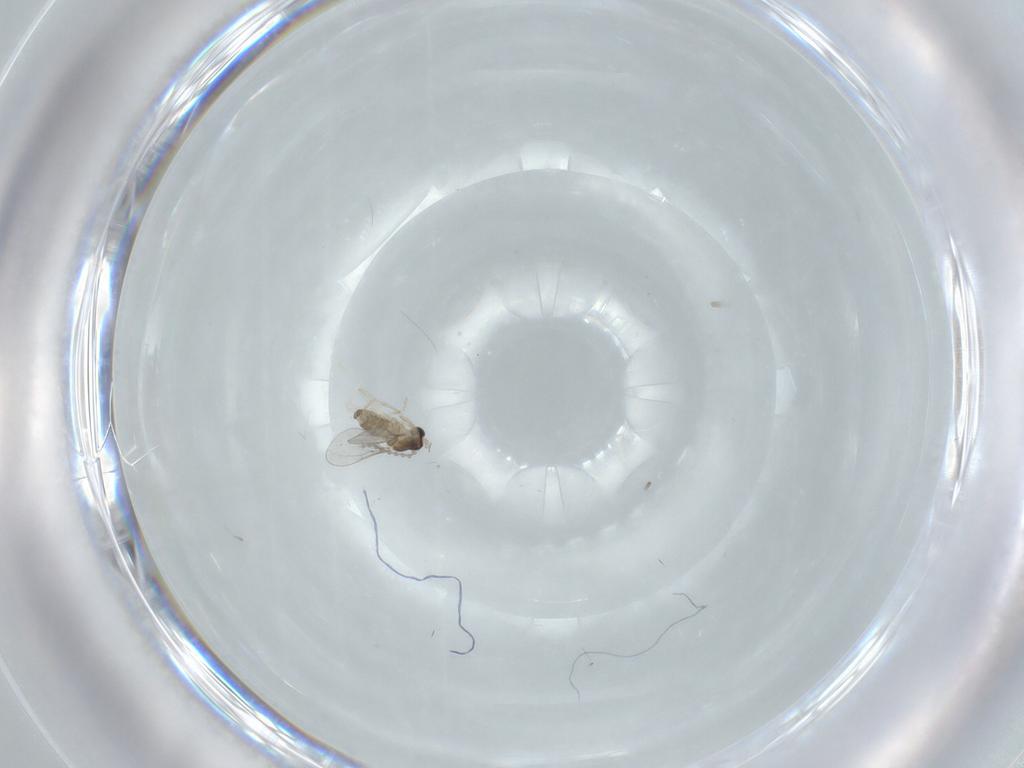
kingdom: Animalia
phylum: Arthropoda
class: Insecta
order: Diptera
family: Cecidomyiidae
